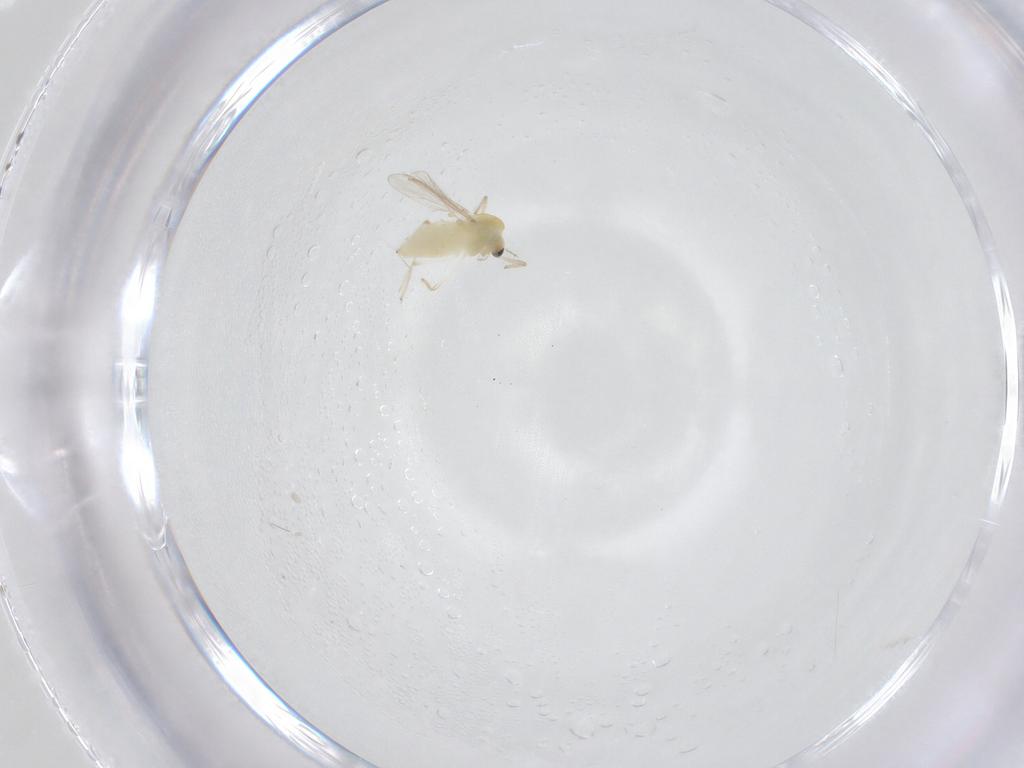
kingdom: Animalia
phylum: Arthropoda
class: Insecta
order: Diptera
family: Chironomidae
